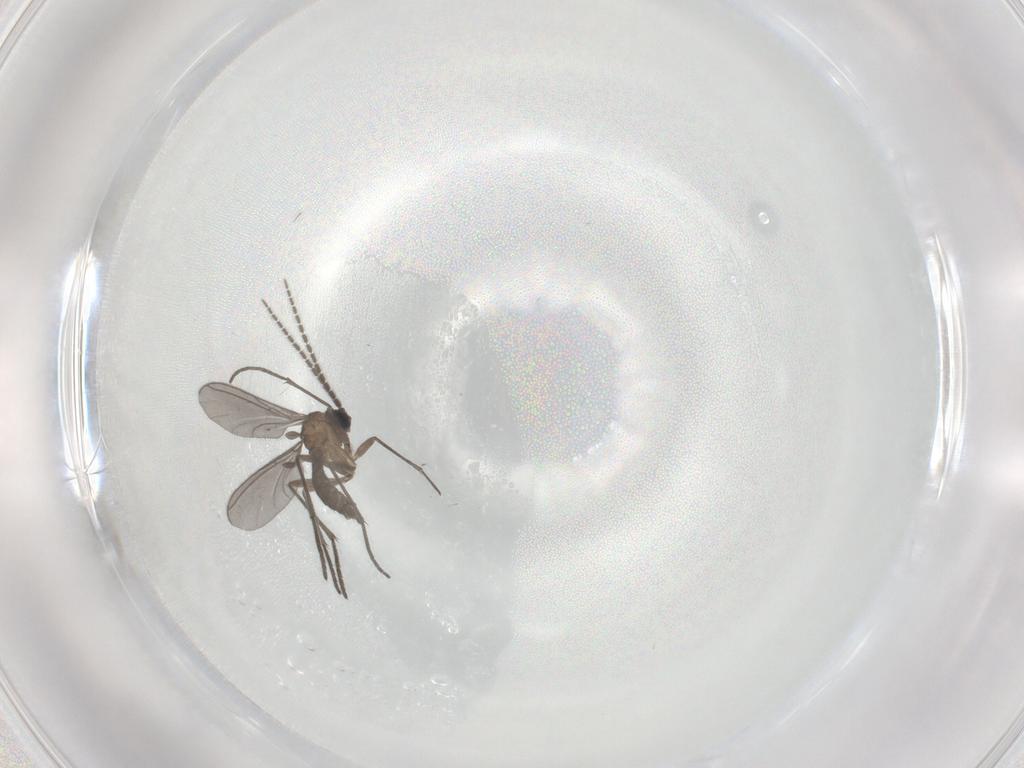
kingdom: Animalia
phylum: Arthropoda
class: Insecta
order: Diptera
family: Sciaridae
